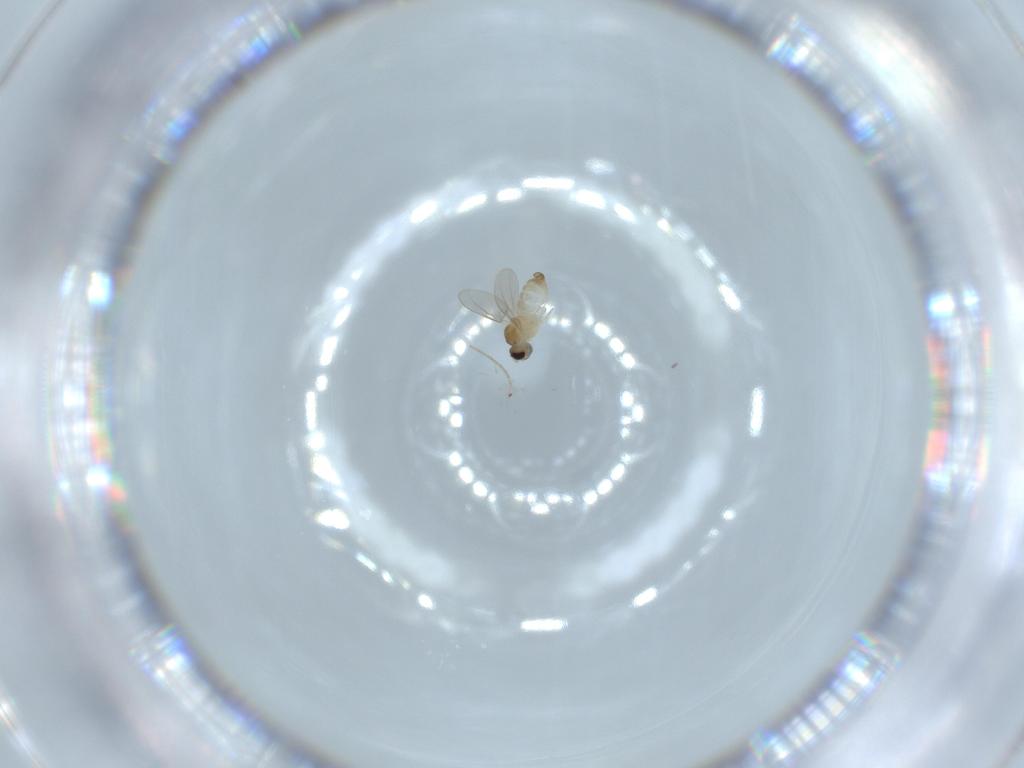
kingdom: Animalia
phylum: Arthropoda
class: Insecta
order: Diptera
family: Cecidomyiidae
